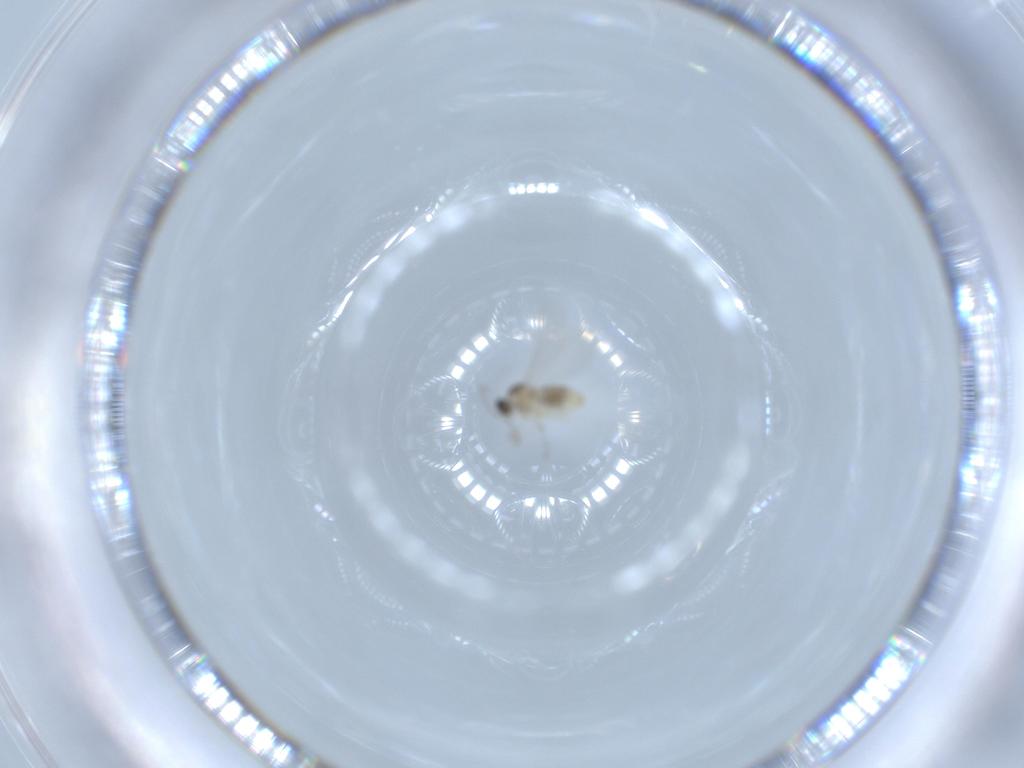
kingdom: Animalia
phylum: Arthropoda
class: Insecta
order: Diptera
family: Cecidomyiidae
